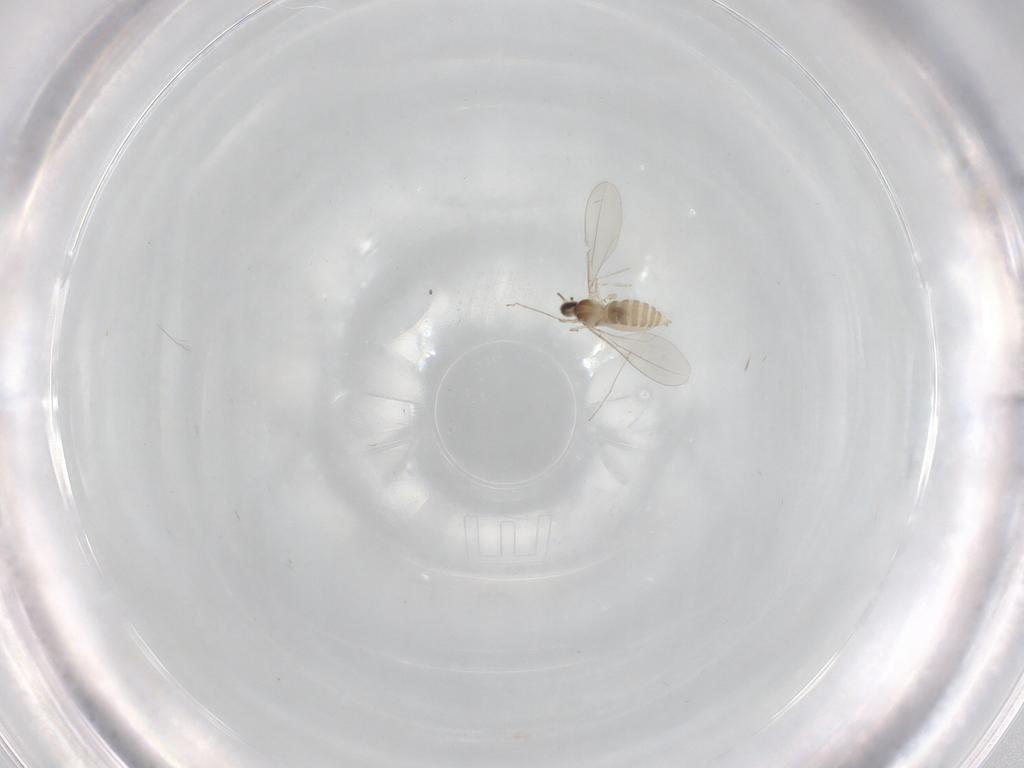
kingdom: Animalia
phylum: Arthropoda
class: Insecta
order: Diptera
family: Cecidomyiidae
